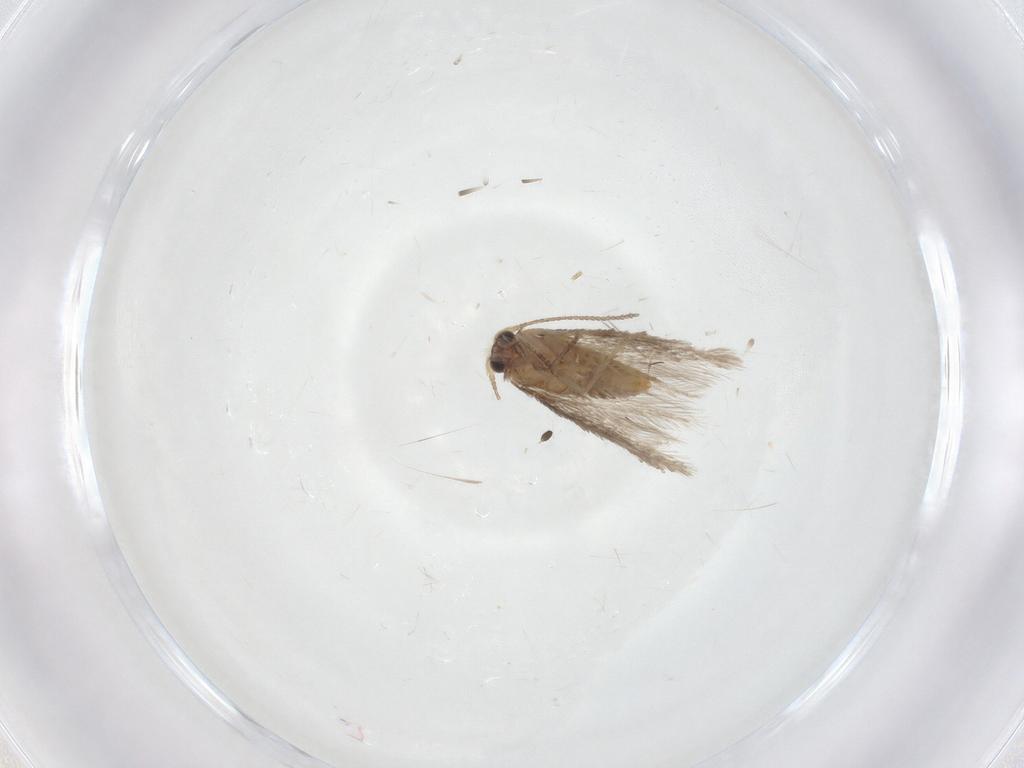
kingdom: Animalia
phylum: Arthropoda
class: Insecta
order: Lepidoptera
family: Nepticulidae
